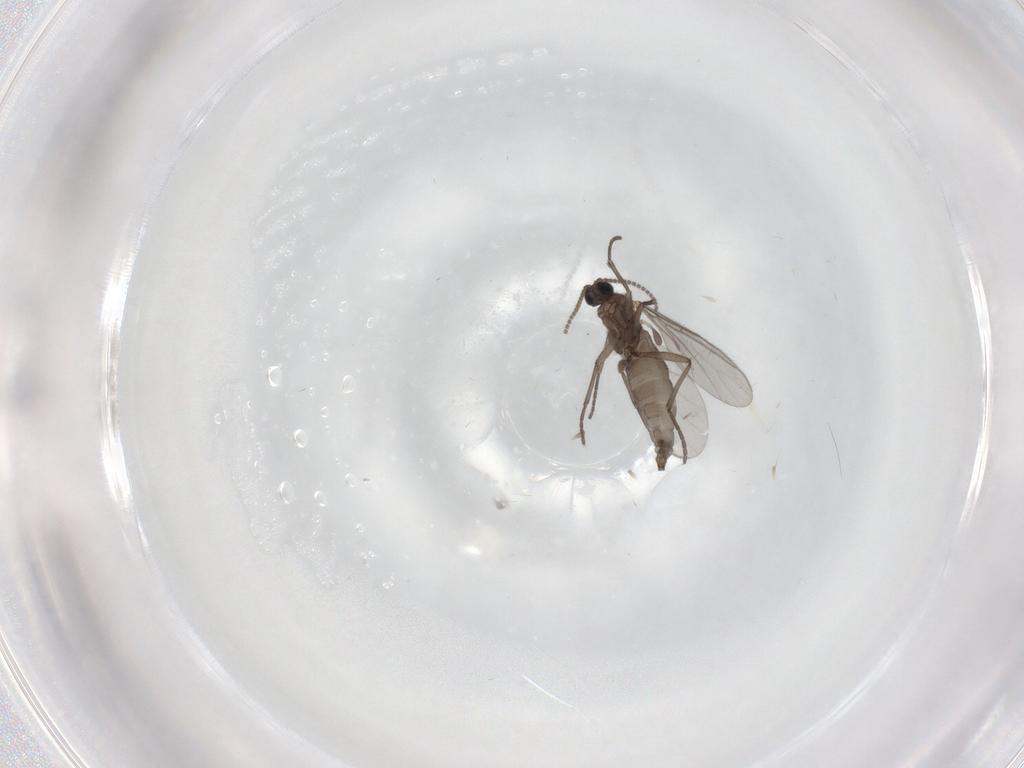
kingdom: Animalia
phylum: Arthropoda
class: Insecta
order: Diptera
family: Sciaridae
